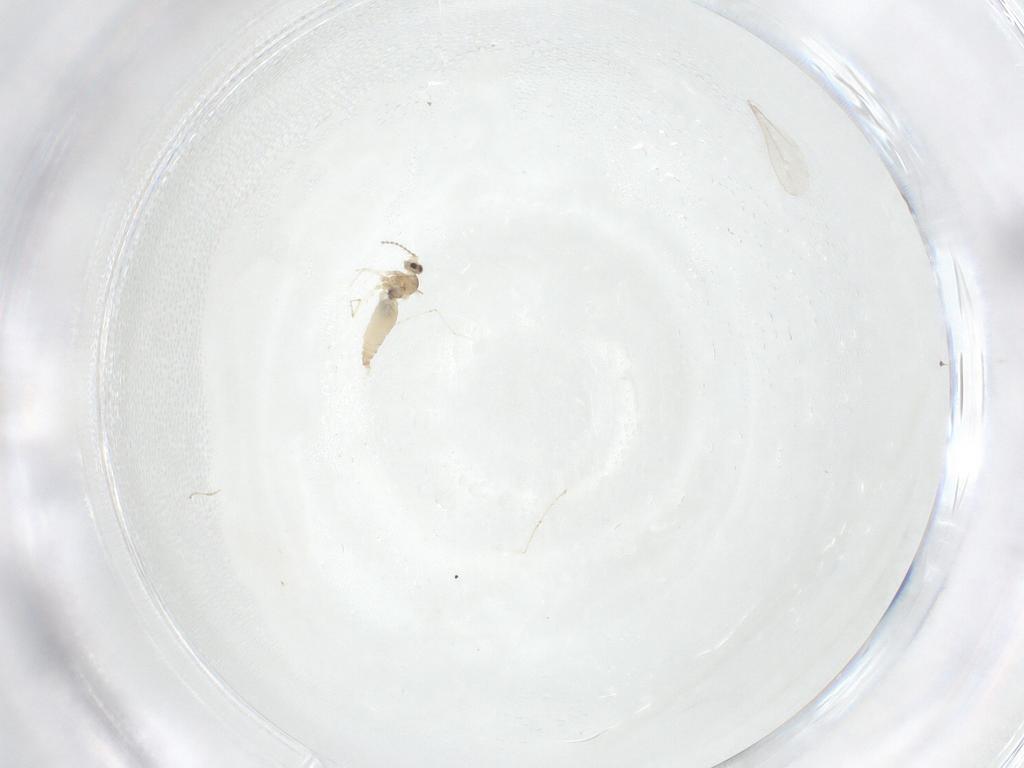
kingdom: Animalia
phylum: Arthropoda
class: Insecta
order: Diptera
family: Cecidomyiidae
